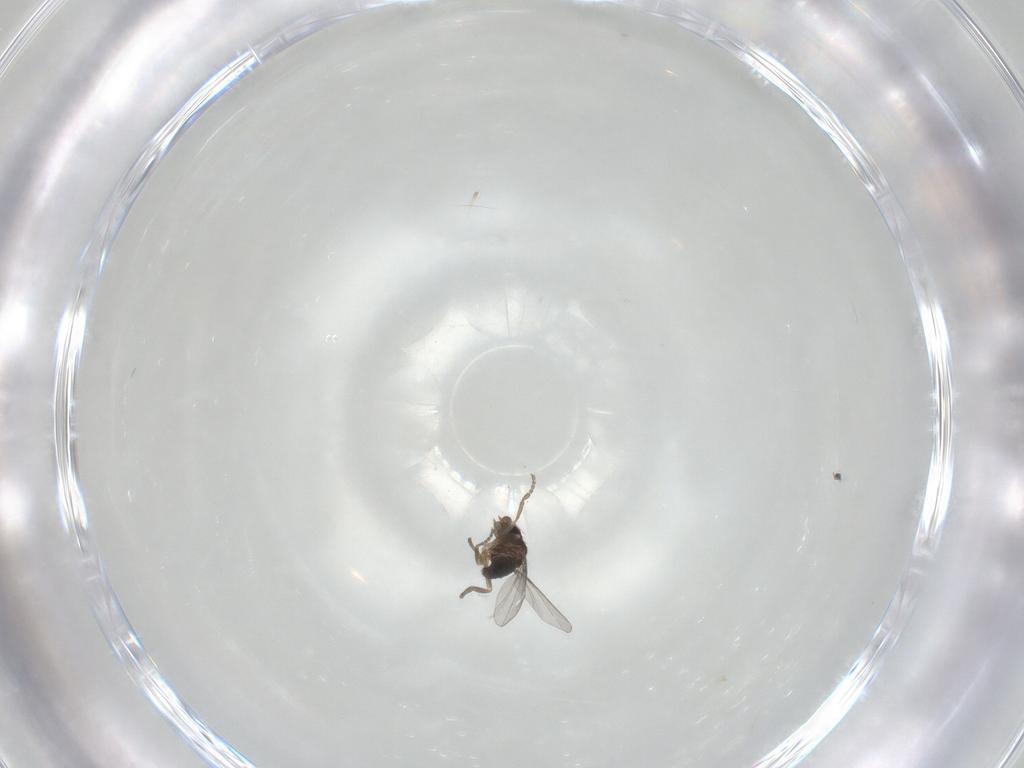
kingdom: Animalia
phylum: Arthropoda
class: Insecta
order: Diptera
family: Phoridae
